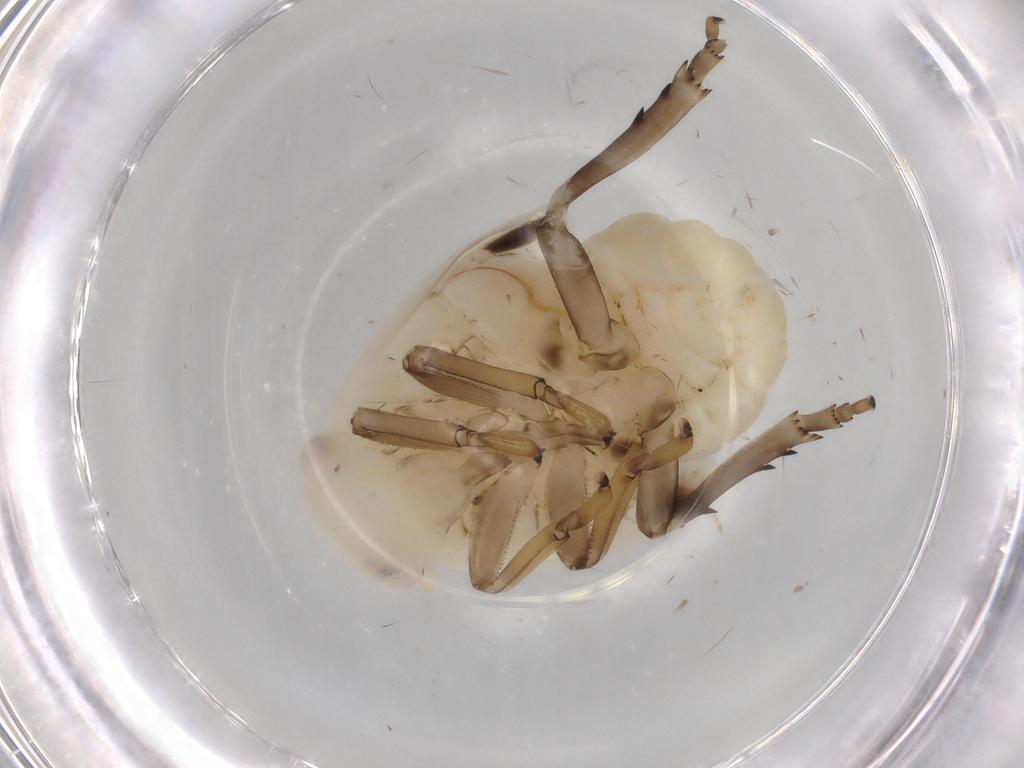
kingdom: Animalia
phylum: Arthropoda
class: Insecta
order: Hemiptera
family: Flatidae
